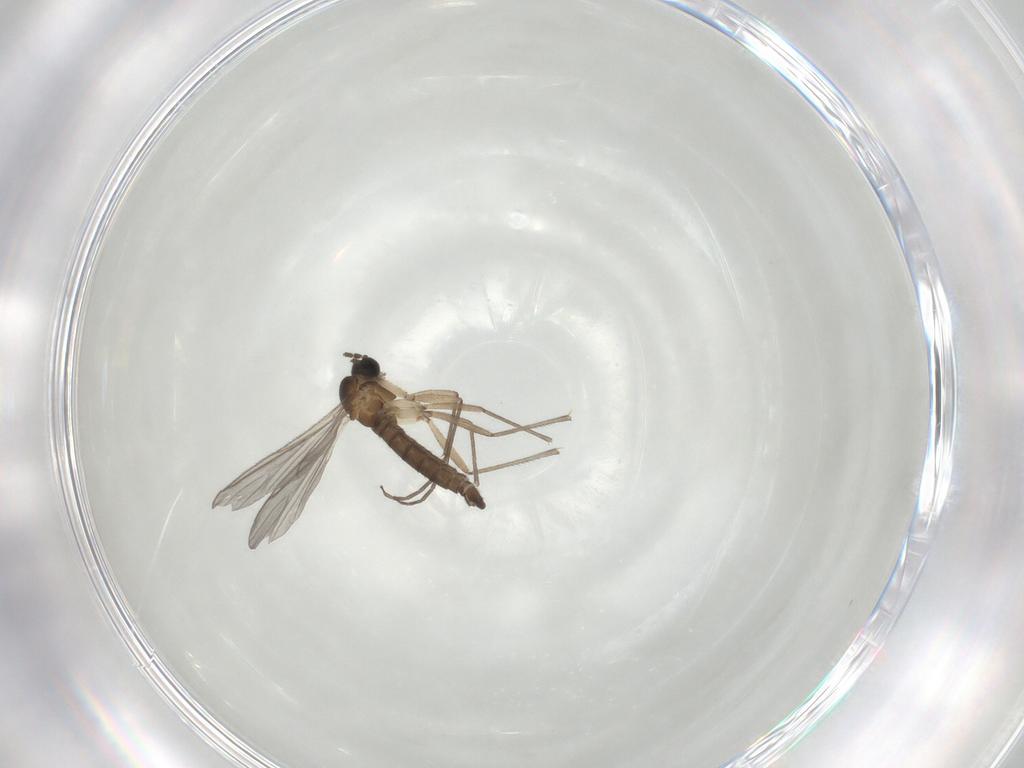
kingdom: Animalia
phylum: Arthropoda
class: Insecta
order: Diptera
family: Sciaridae
